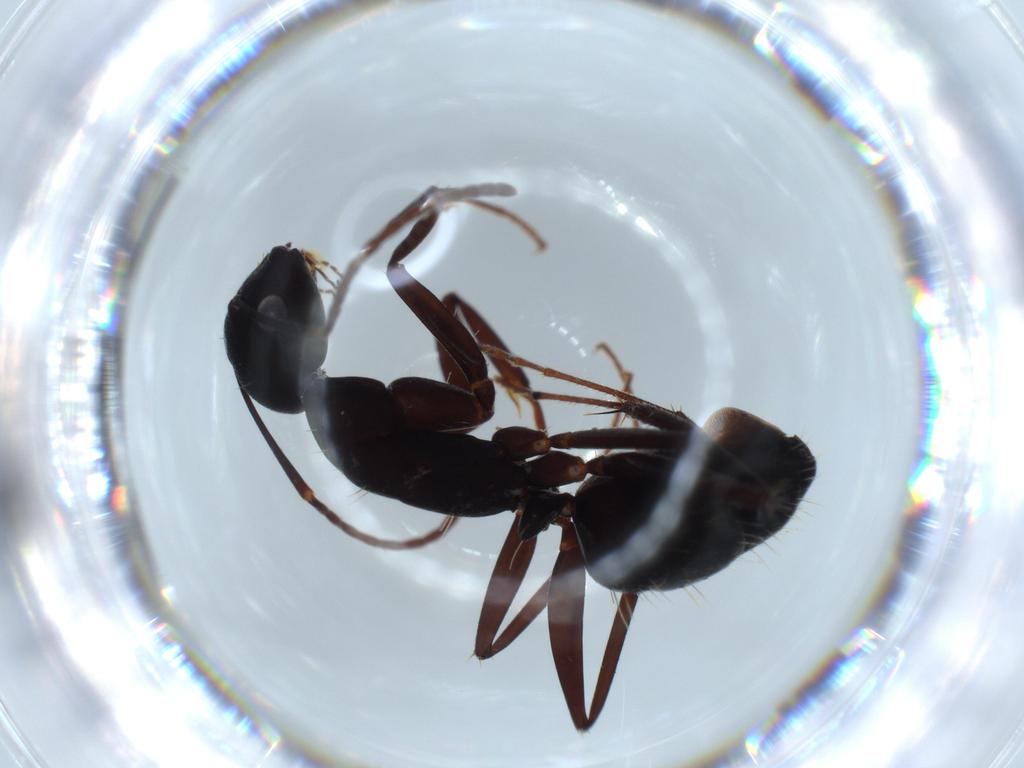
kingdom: Animalia
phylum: Arthropoda
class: Insecta
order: Hymenoptera
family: Formicidae
